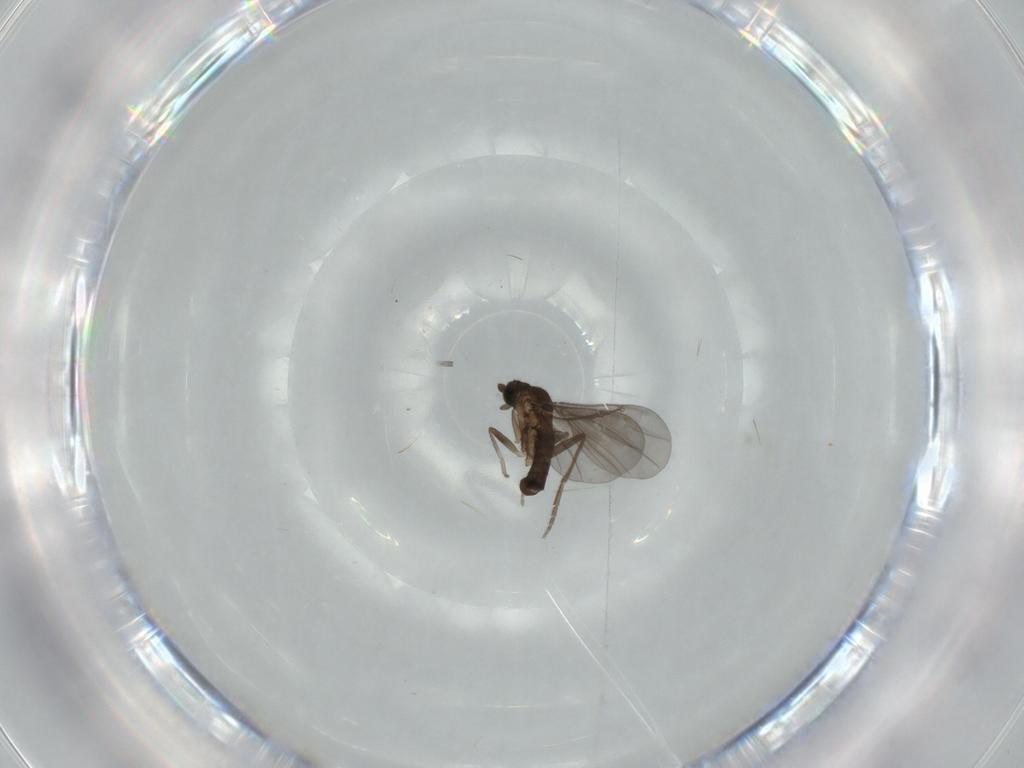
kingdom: Animalia
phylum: Arthropoda
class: Insecta
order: Diptera
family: Phoridae
